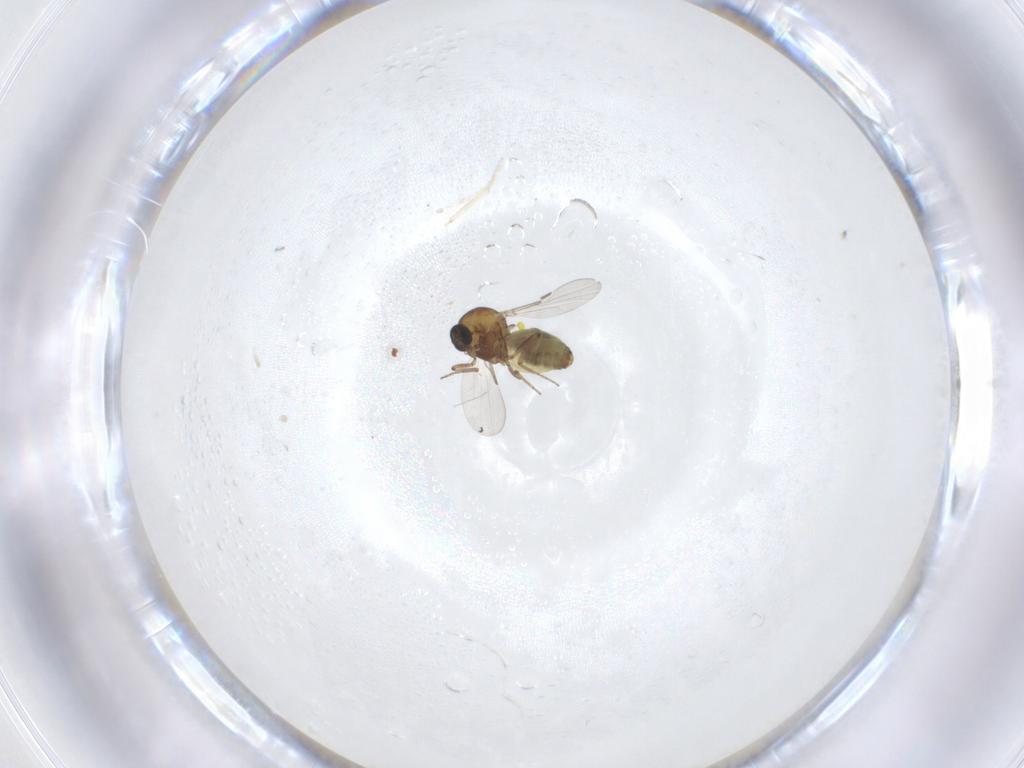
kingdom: Animalia
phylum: Arthropoda
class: Insecta
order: Diptera
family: Ceratopogonidae
